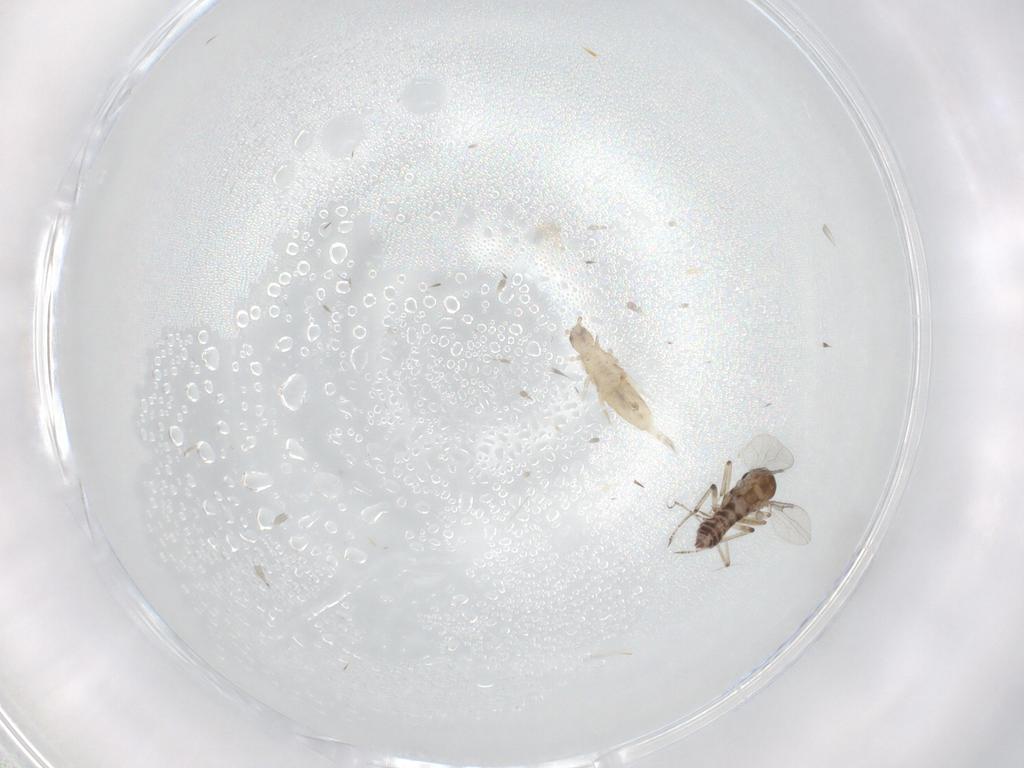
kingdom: Animalia
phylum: Arthropoda
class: Collembola
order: Entomobryomorpha
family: Entomobryidae
